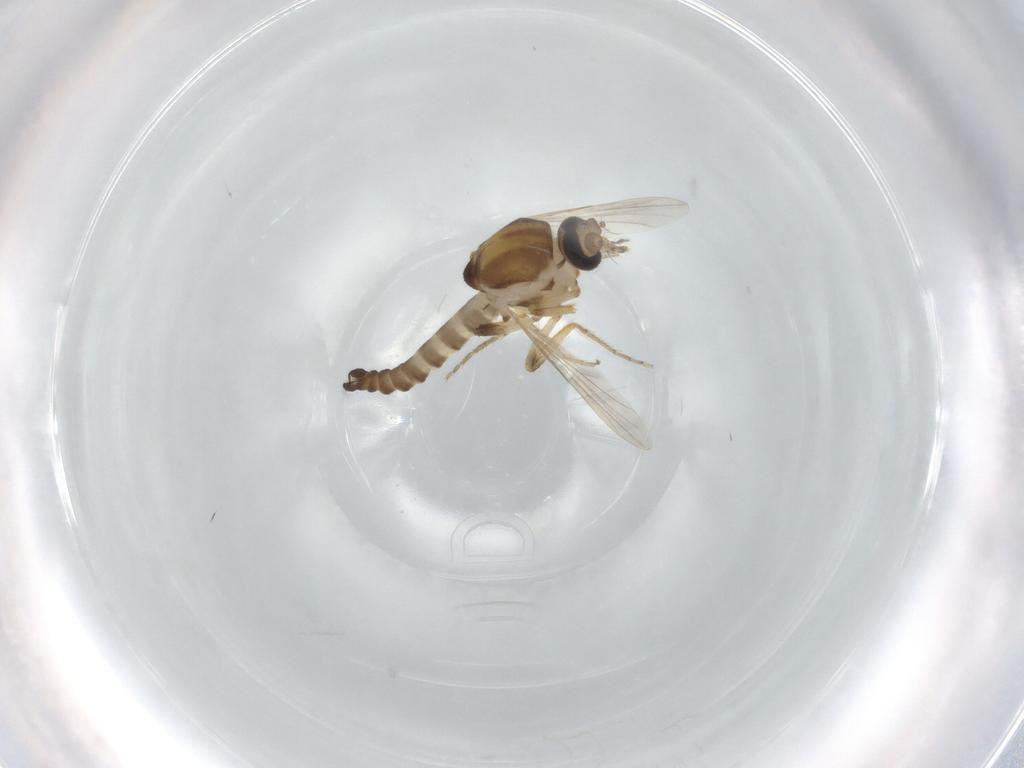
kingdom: Animalia
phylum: Arthropoda
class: Insecta
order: Diptera
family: Ceratopogonidae
